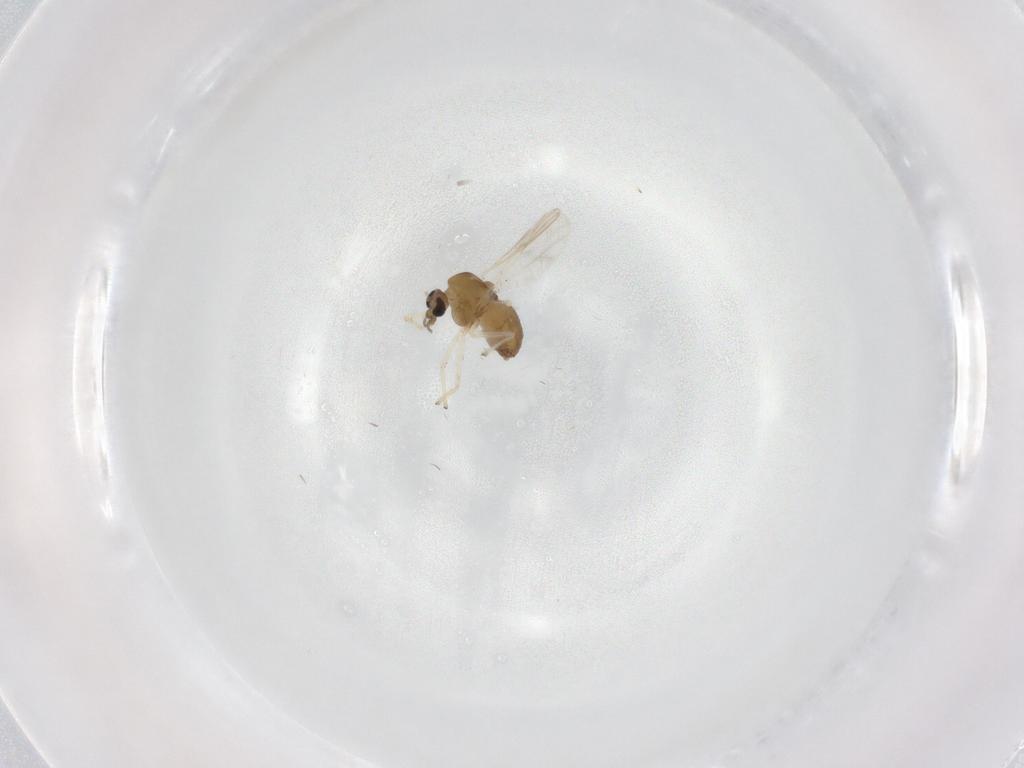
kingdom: Animalia
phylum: Arthropoda
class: Insecta
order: Diptera
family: Chironomidae
